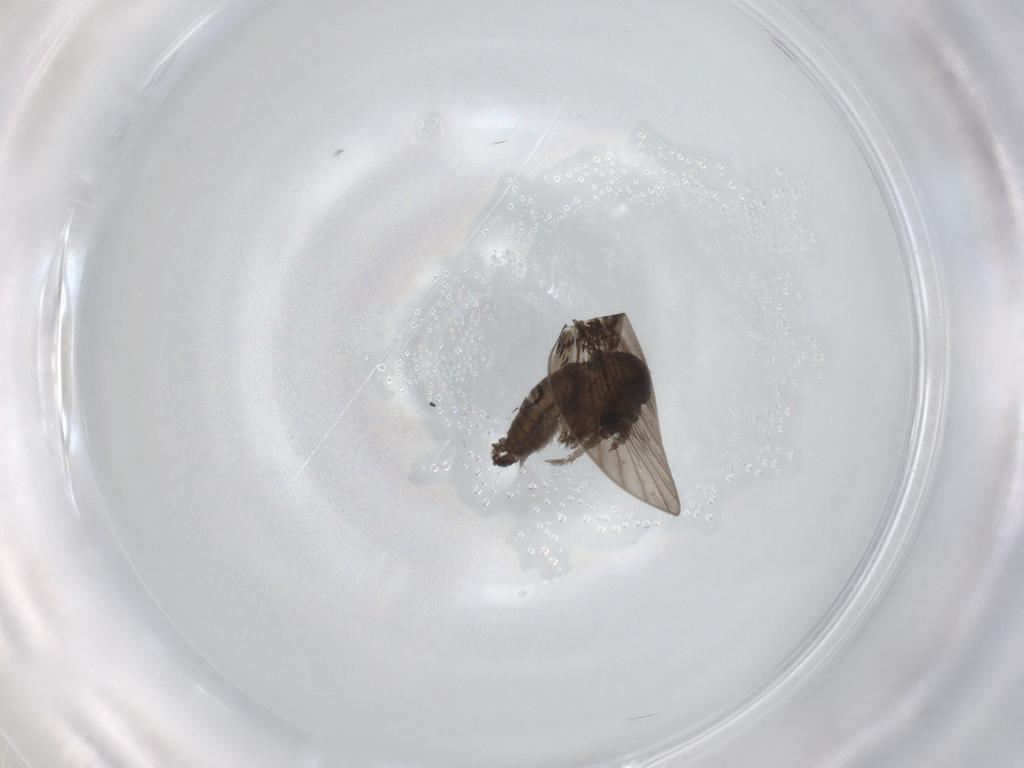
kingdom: Animalia
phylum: Arthropoda
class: Insecta
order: Diptera
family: Psychodidae
